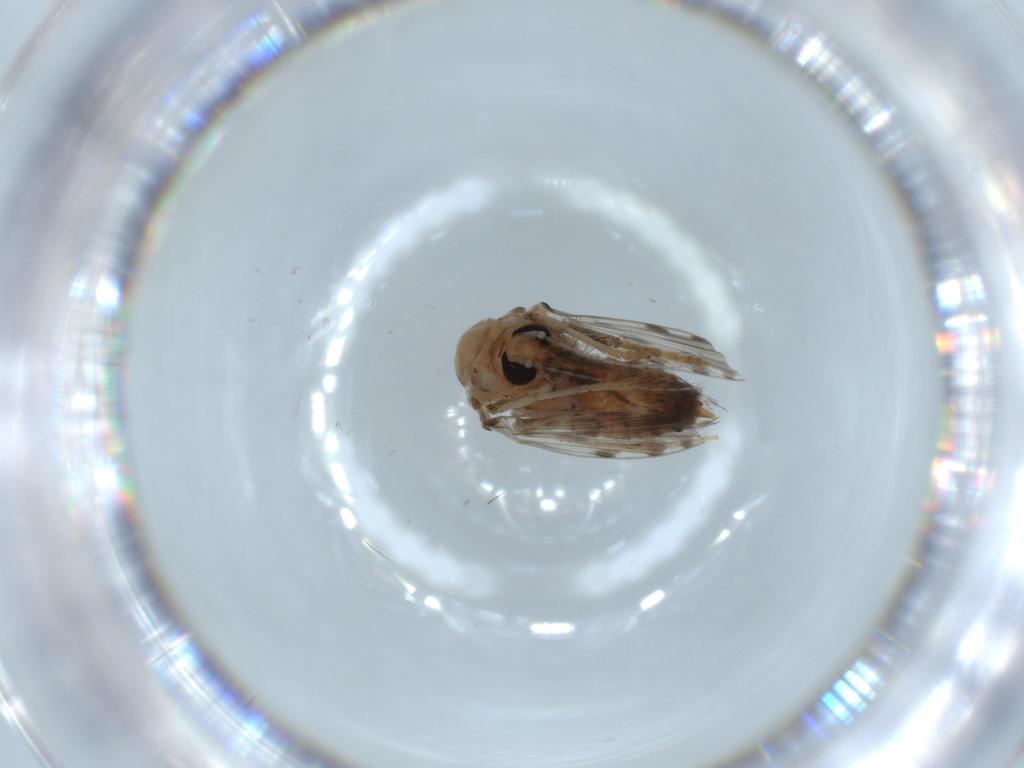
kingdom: Animalia
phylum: Arthropoda
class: Insecta
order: Diptera
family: Psychodidae
